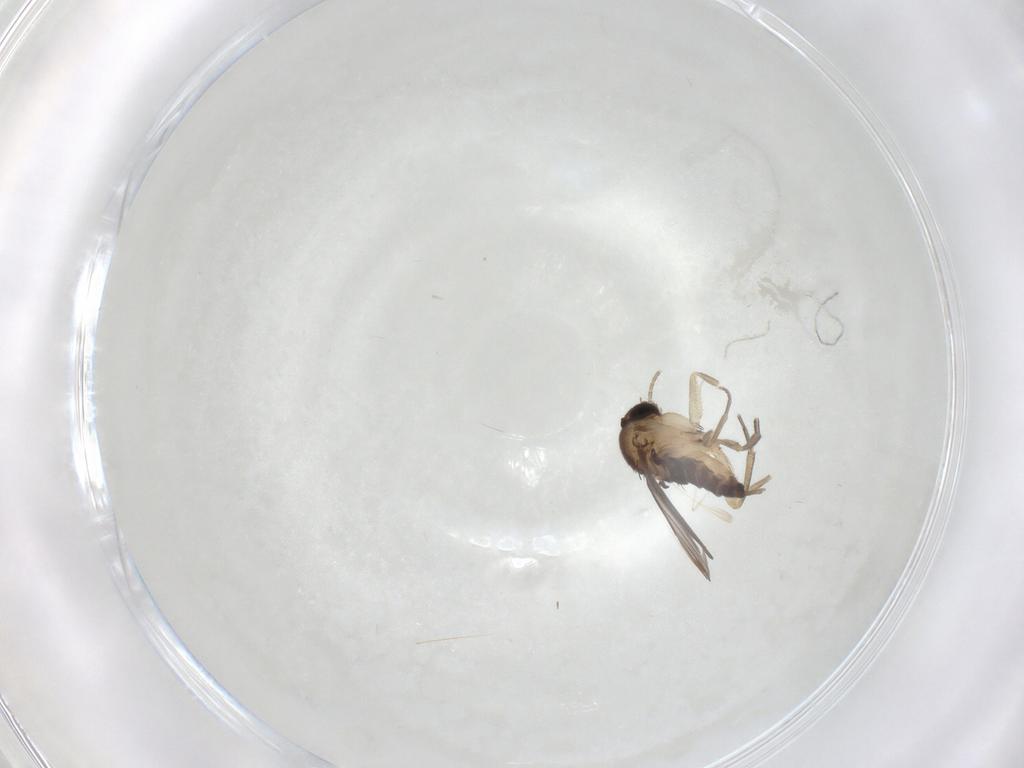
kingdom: Animalia
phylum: Arthropoda
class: Insecta
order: Diptera
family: Phoridae
